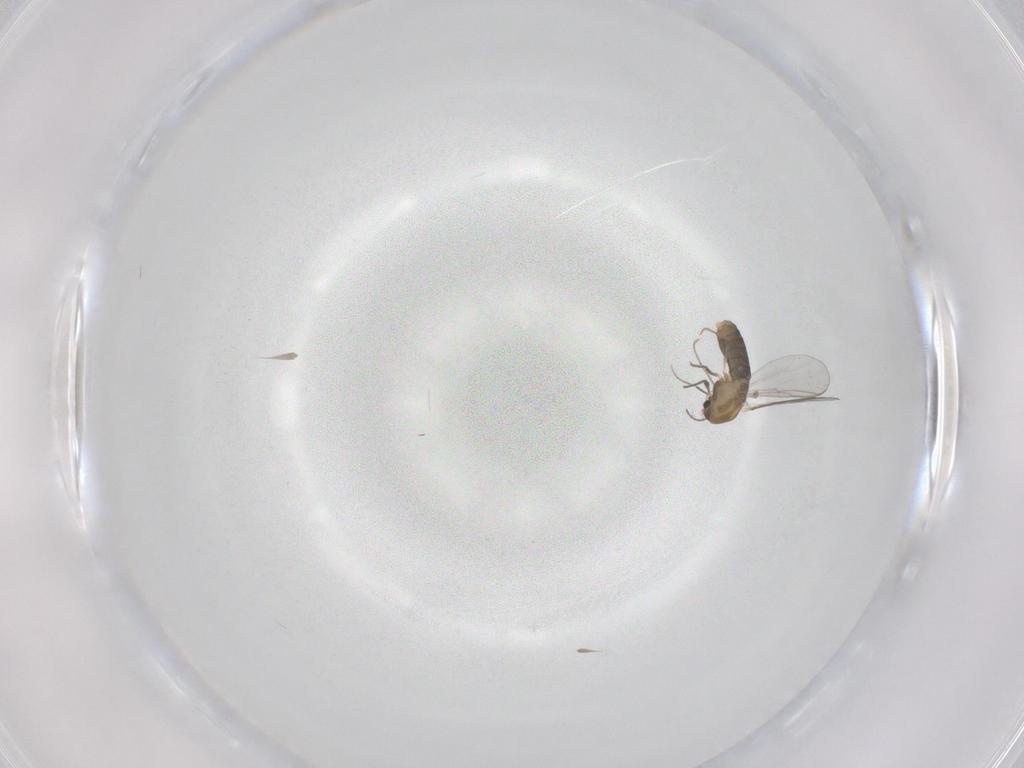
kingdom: Animalia
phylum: Arthropoda
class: Insecta
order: Diptera
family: Chironomidae
